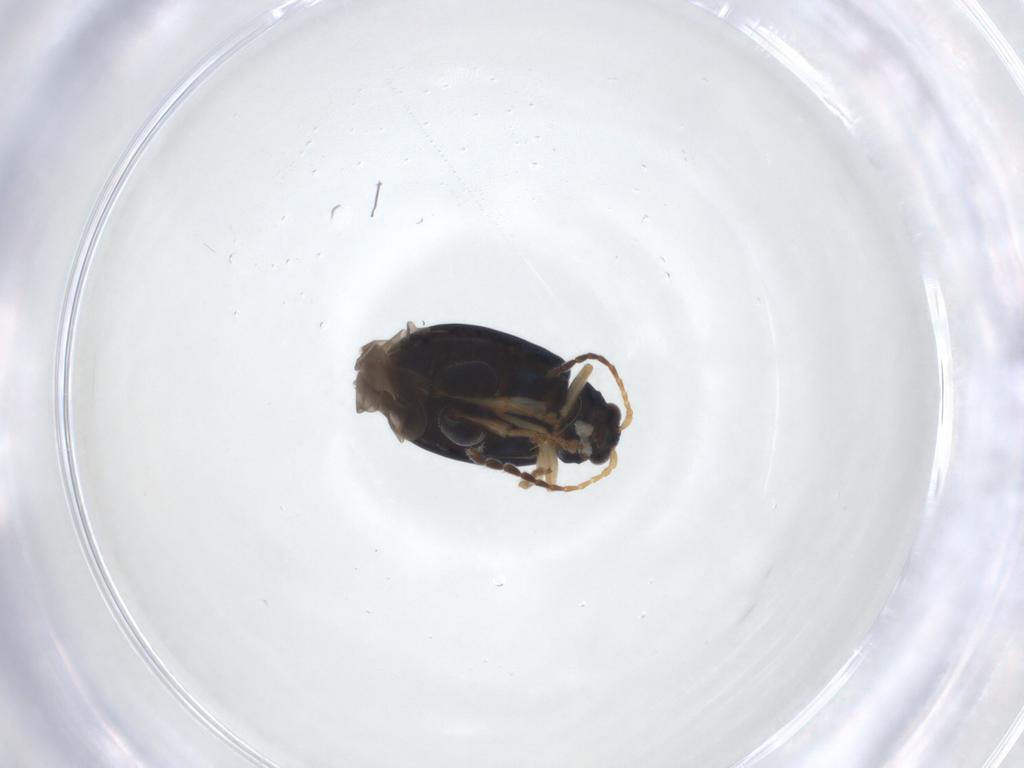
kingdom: Animalia
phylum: Arthropoda
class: Insecta
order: Coleoptera
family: Chrysomelidae
